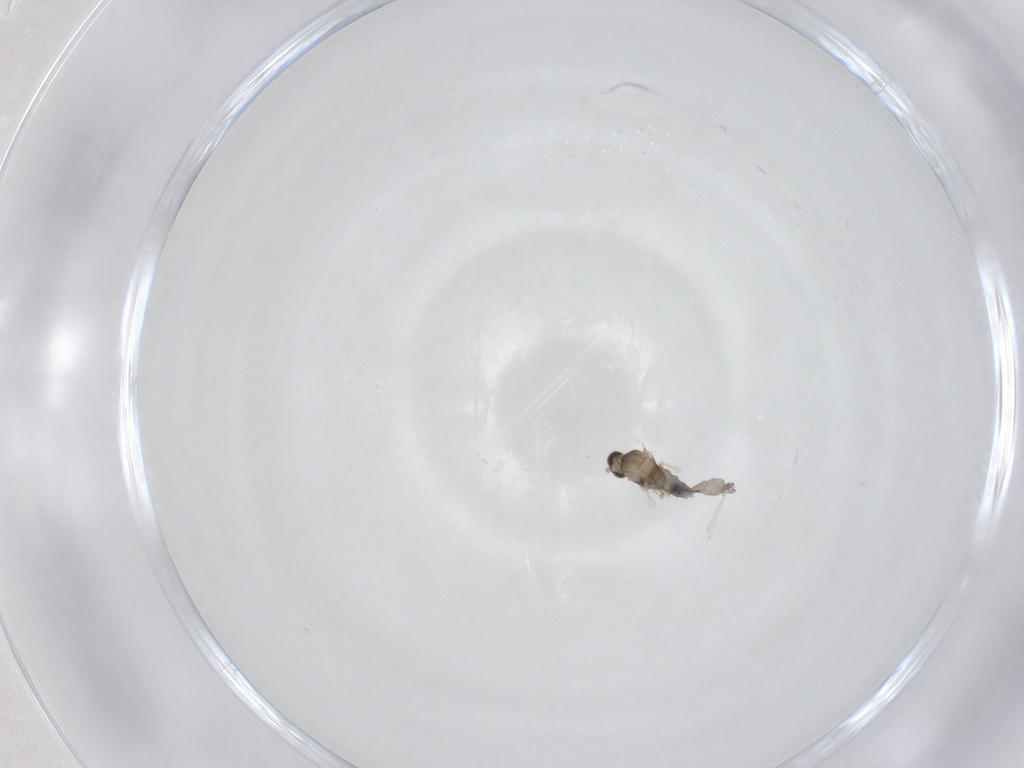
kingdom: Animalia
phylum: Arthropoda
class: Insecta
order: Diptera
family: Cecidomyiidae
